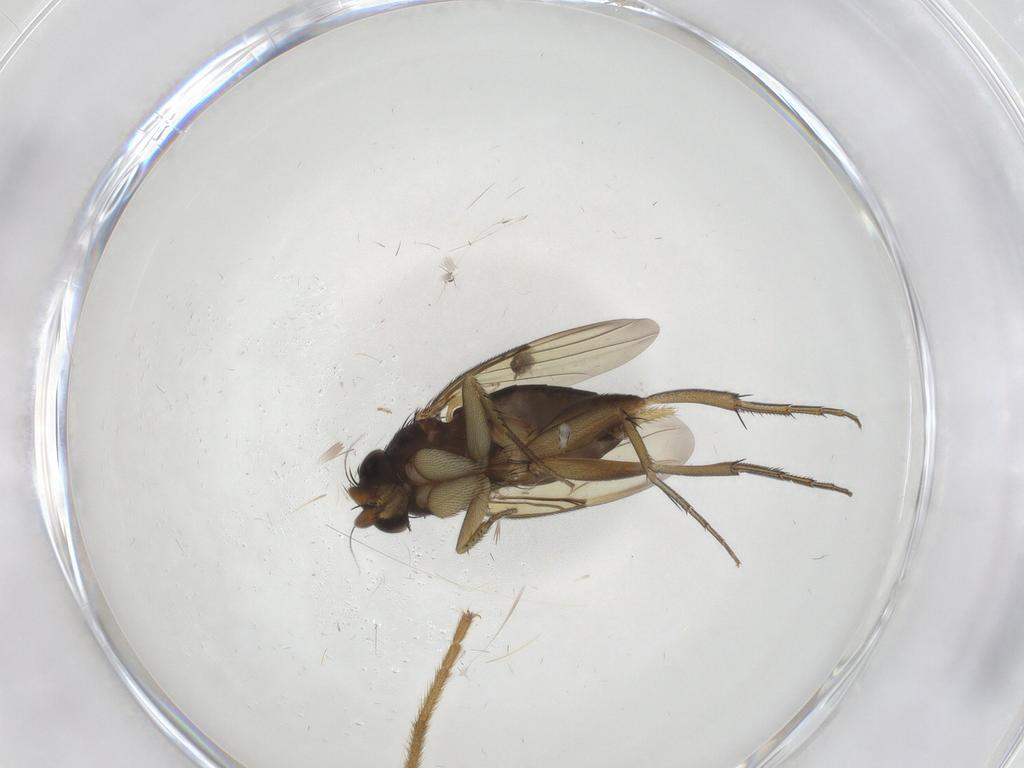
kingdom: Animalia
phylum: Arthropoda
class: Insecta
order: Diptera
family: Phoridae
